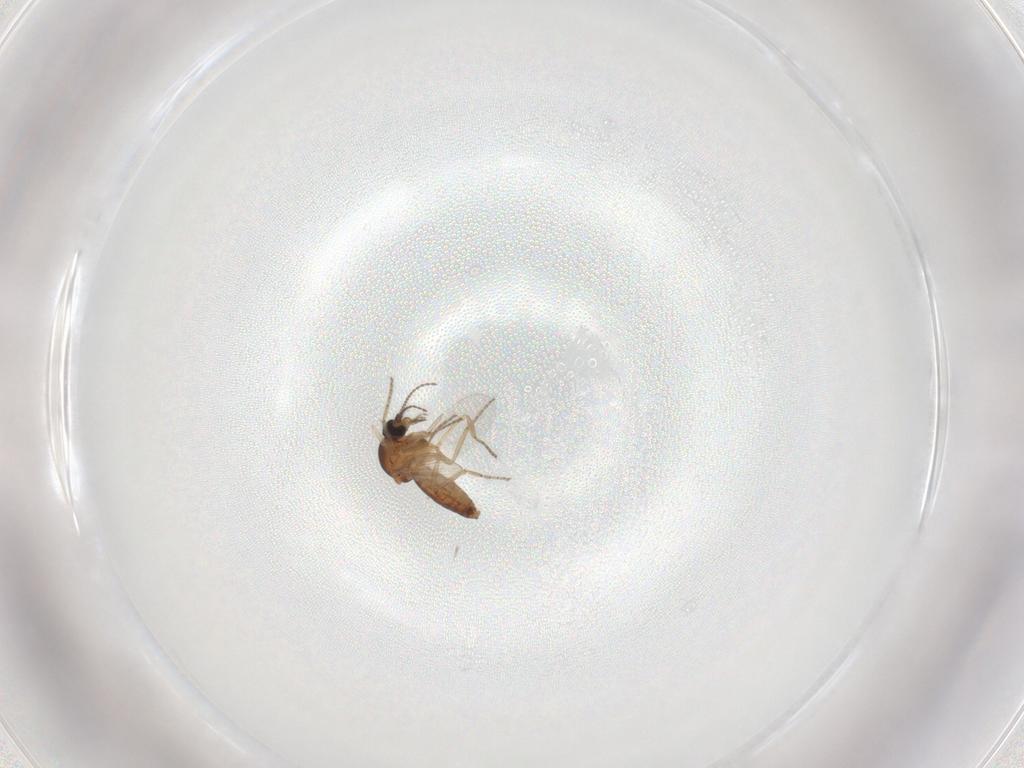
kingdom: Animalia
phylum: Arthropoda
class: Insecta
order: Diptera
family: Ceratopogonidae
